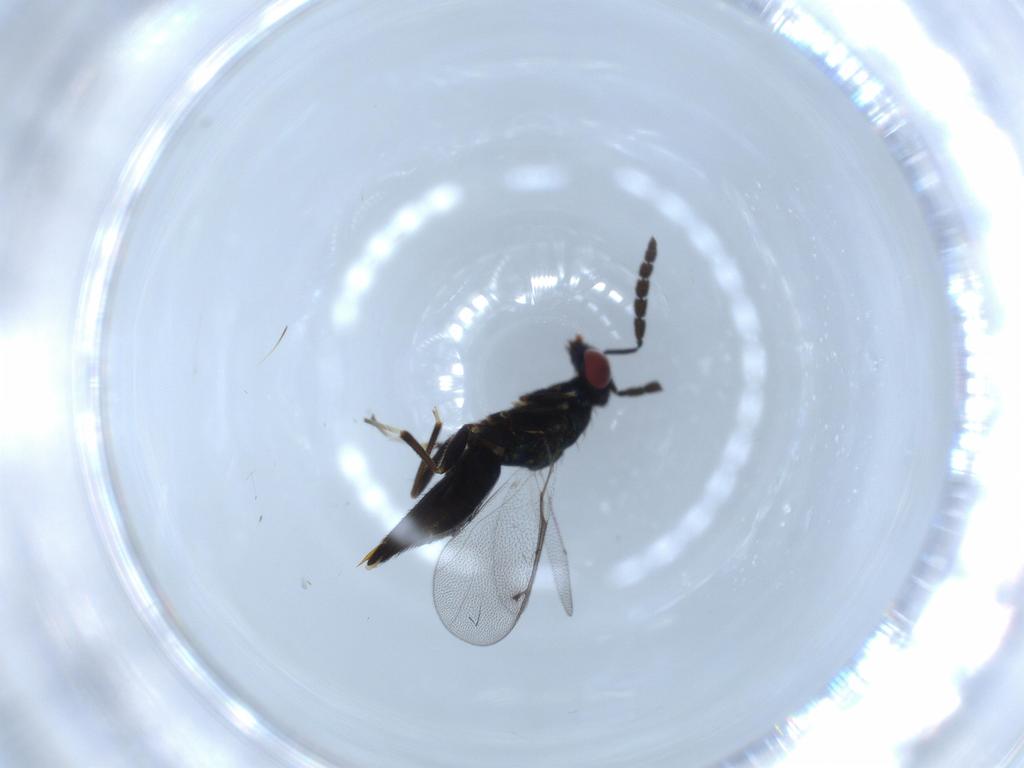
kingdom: Animalia
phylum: Arthropoda
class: Insecta
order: Hymenoptera
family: Eulophidae
